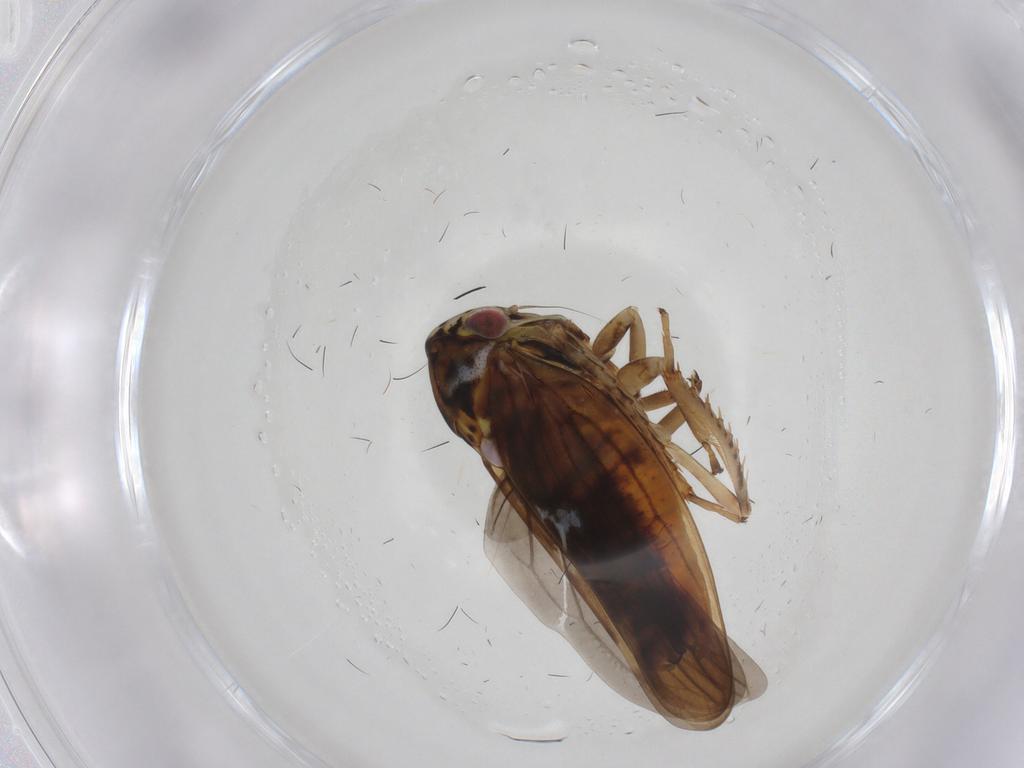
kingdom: Animalia
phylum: Arthropoda
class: Insecta
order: Hemiptera
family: Cicadellidae
